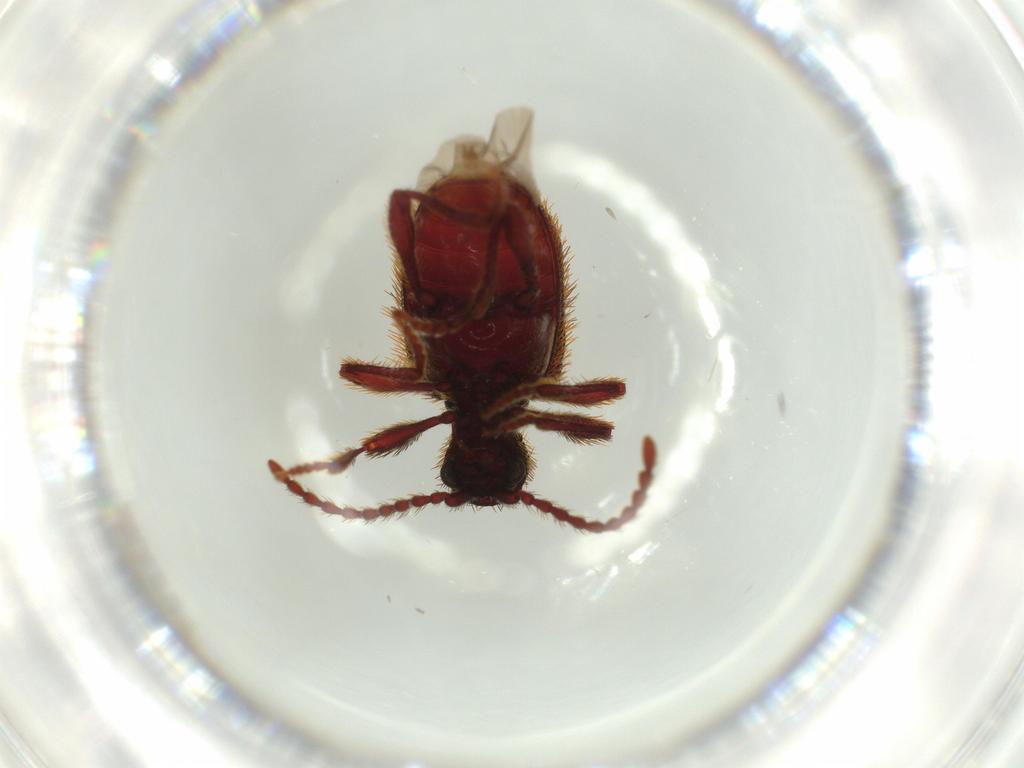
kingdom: Animalia
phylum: Arthropoda
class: Insecta
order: Coleoptera
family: Ptinidae
